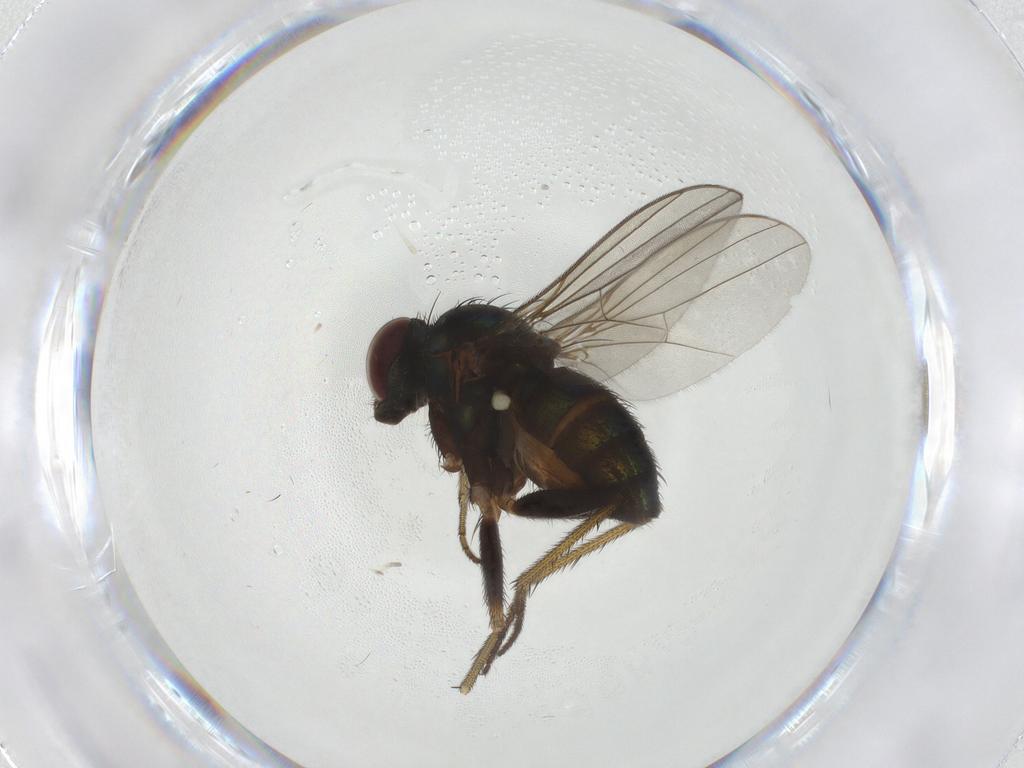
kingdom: Animalia
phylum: Arthropoda
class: Insecta
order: Diptera
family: Cecidomyiidae
